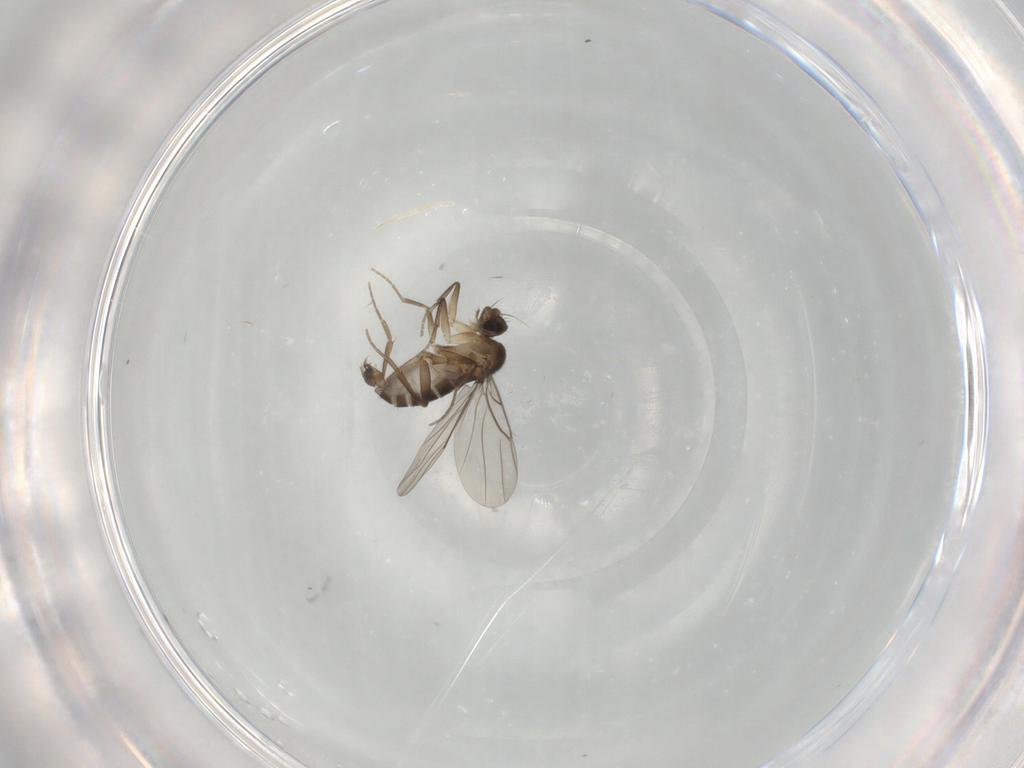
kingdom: Animalia
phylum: Arthropoda
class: Insecta
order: Diptera
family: Phoridae
